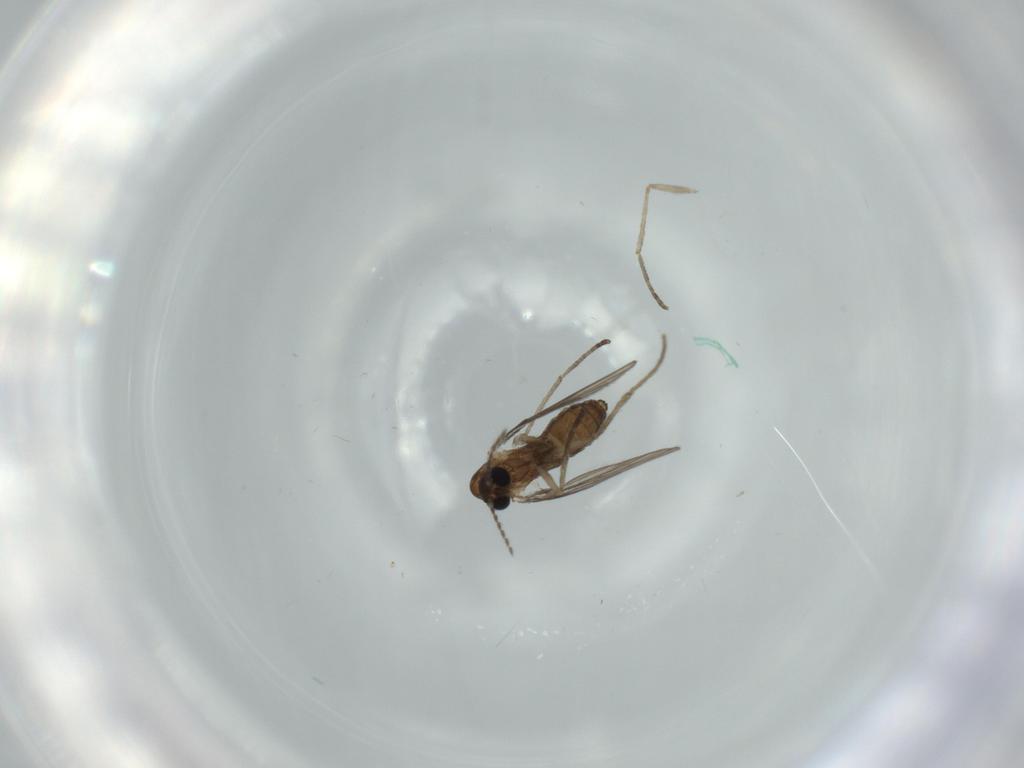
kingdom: Animalia
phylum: Arthropoda
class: Insecta
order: Diptera
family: Psychodidae
